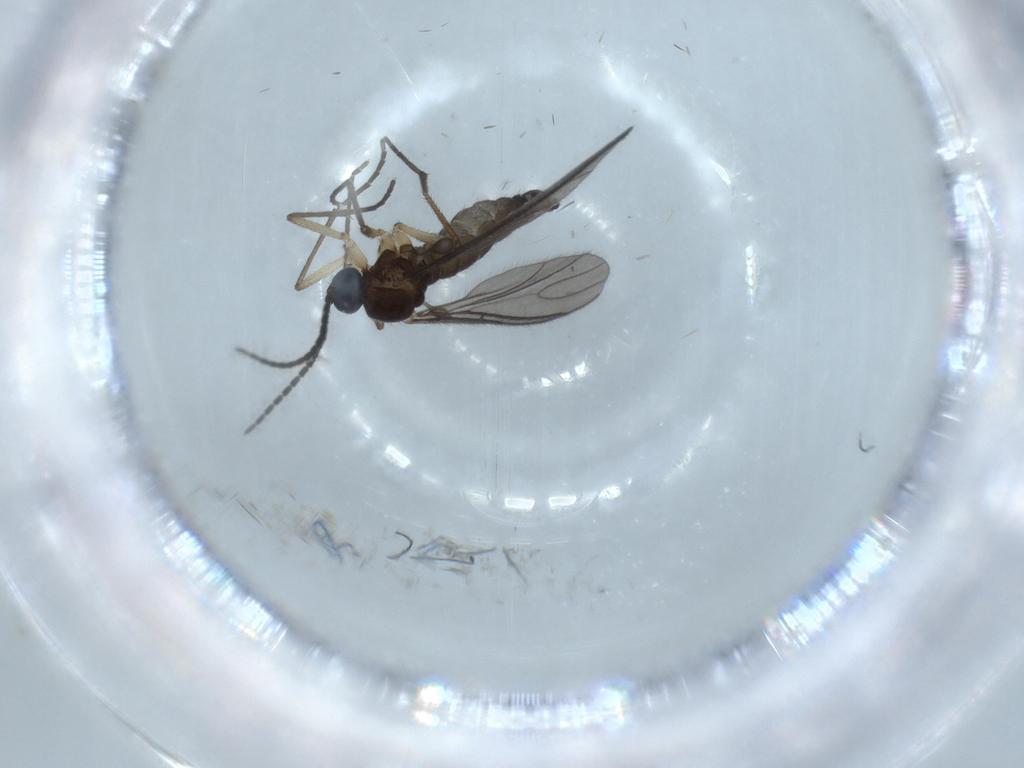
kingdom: Animalia
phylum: Arthropoda
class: Insecta
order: Diptera
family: Sciaridae
